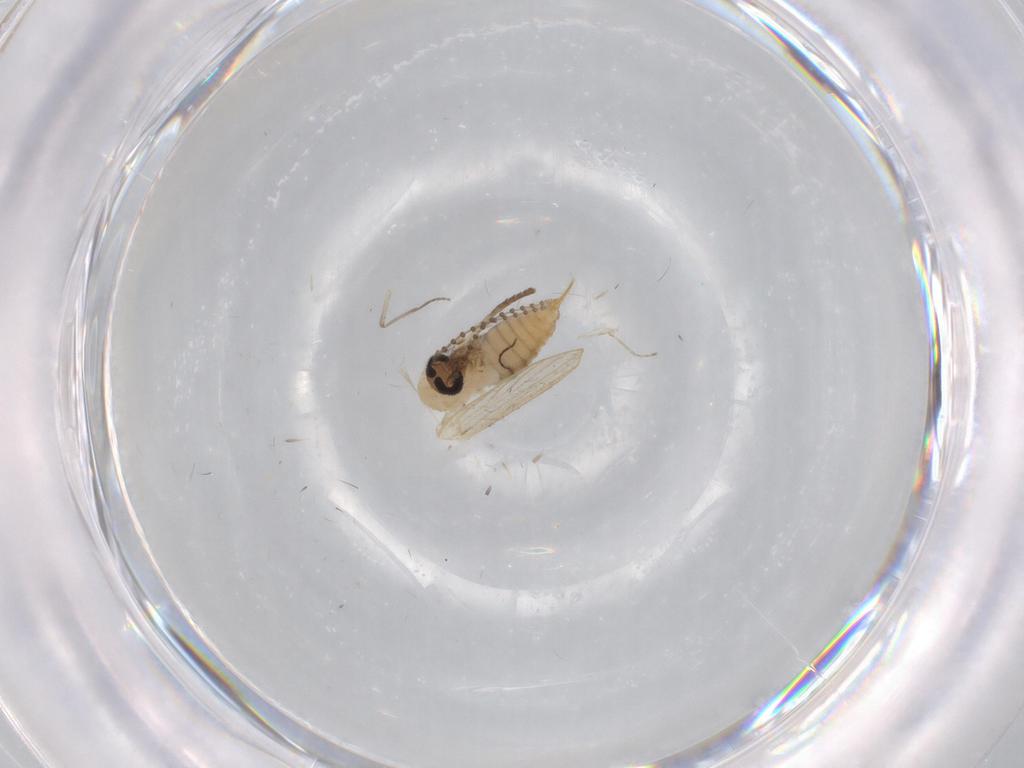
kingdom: Animalia
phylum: Arthropoda
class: Insecta
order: Diptera
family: Psychodidae
